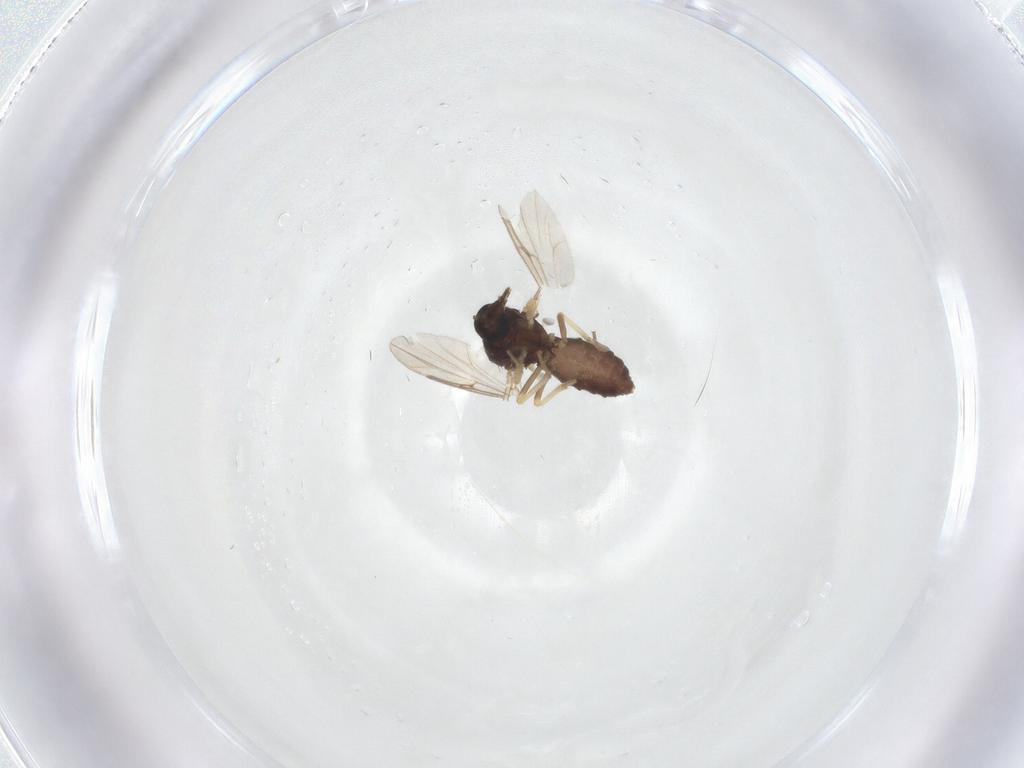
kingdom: Animalia
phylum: Arthropoda
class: Insecta
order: Diptera
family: Ceratopogonidae
